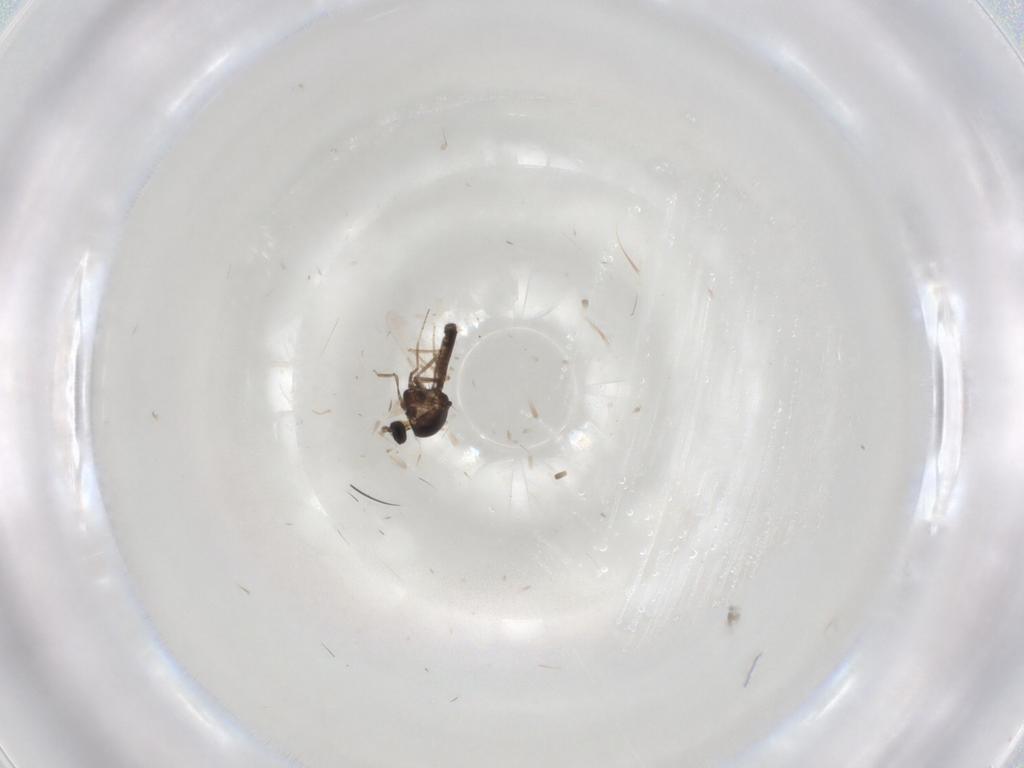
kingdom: Animalia
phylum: Arthropoda
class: Insecta
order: Diptera
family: Ceratopogonidae
